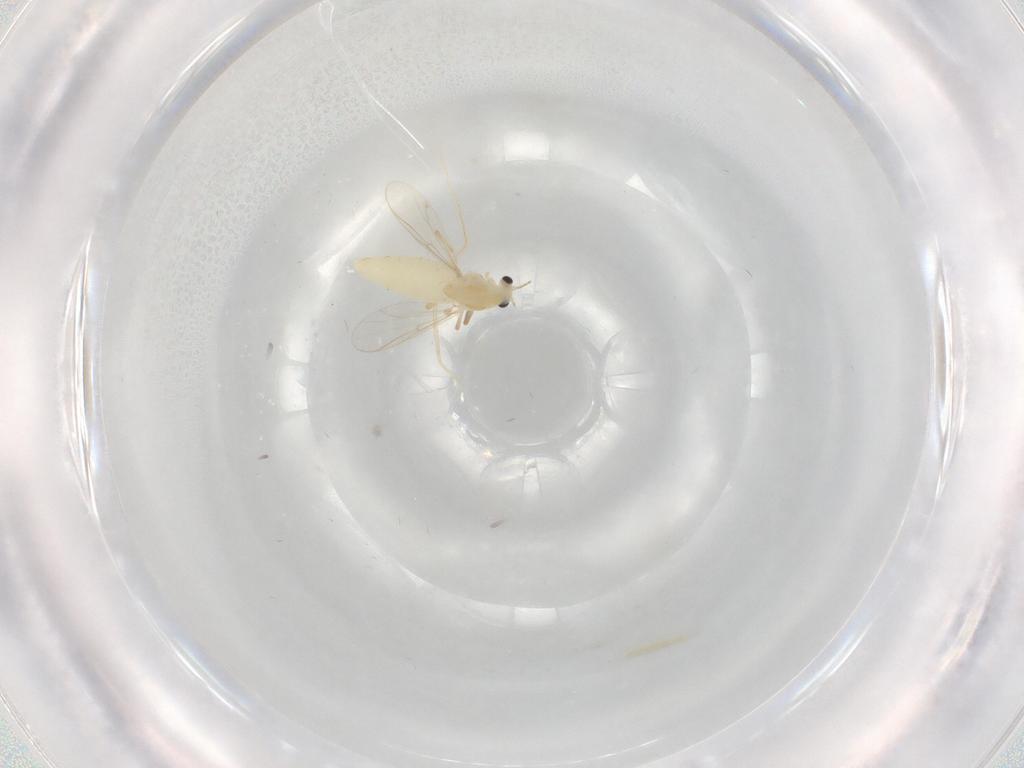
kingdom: Animalia
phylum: Arthropoda
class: Insecta
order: Diptera
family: Chironomidae
